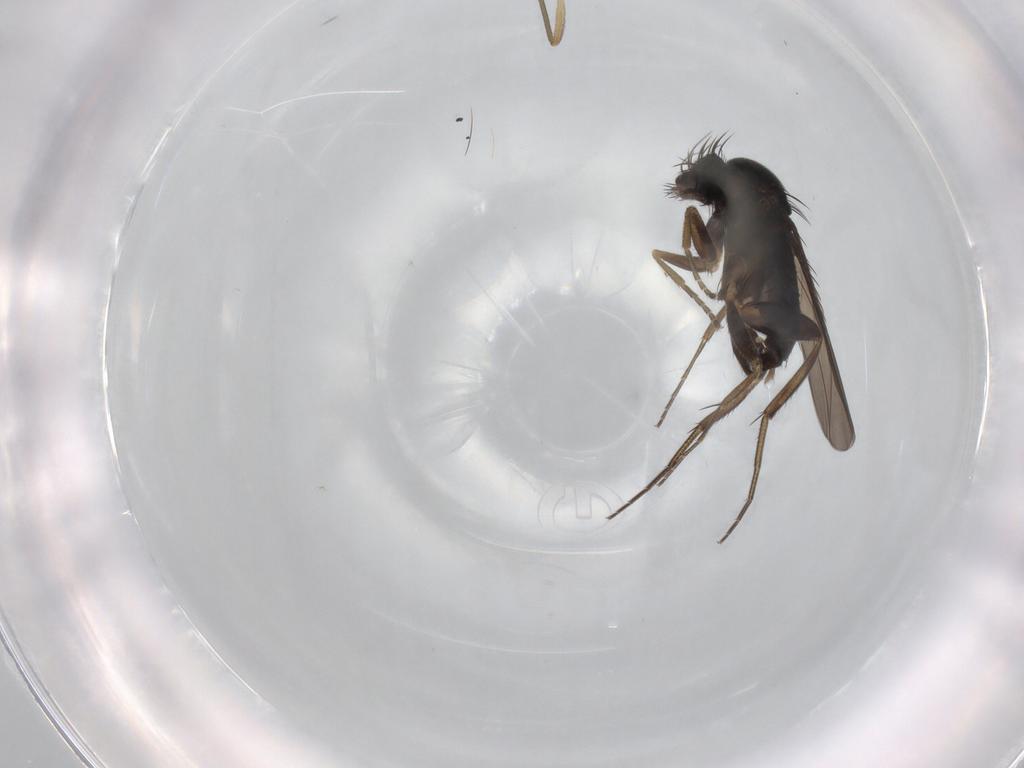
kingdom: Animalia
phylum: Arthropoda
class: Insecta
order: Diptera
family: Phoridae
